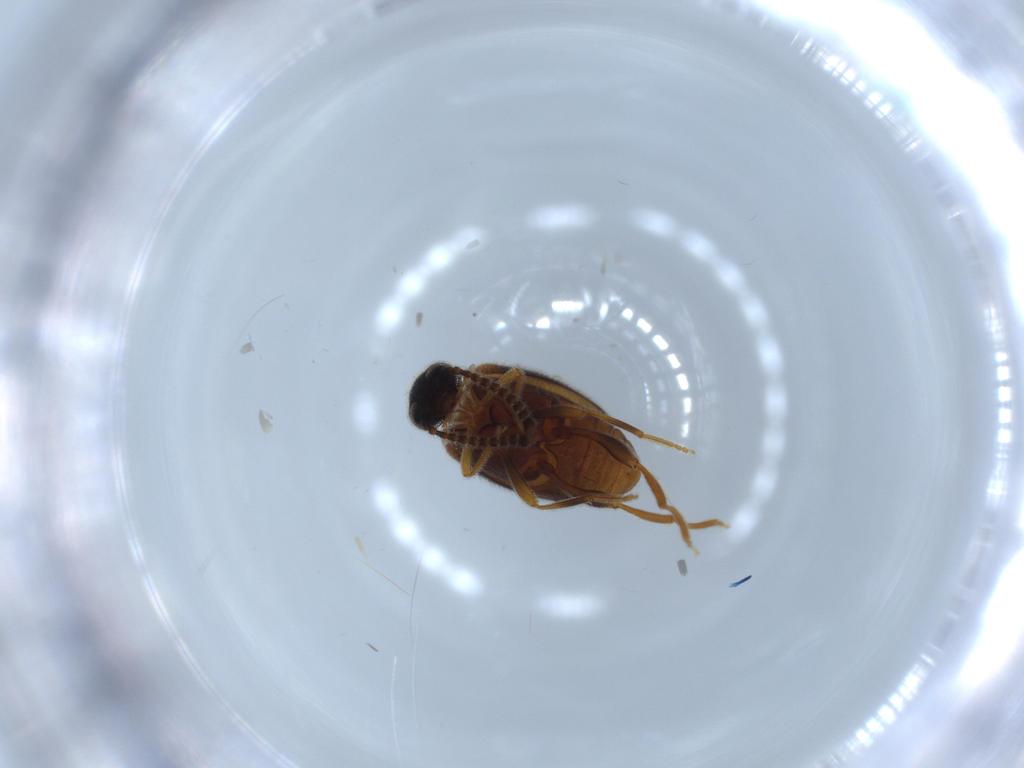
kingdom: Animalia
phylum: Arthropoda
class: Insecta
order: Coleoptera
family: Aderidae
